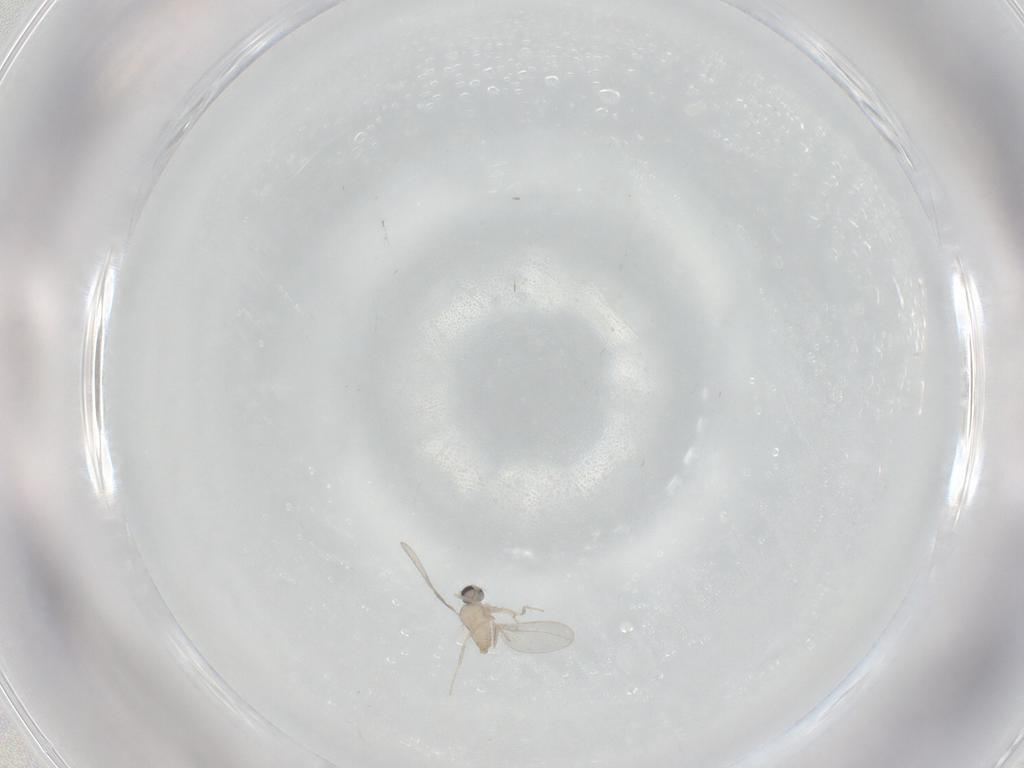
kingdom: Animalia
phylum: Arthropoda
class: Insecta
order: Diptera
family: Cecidomyiidae
